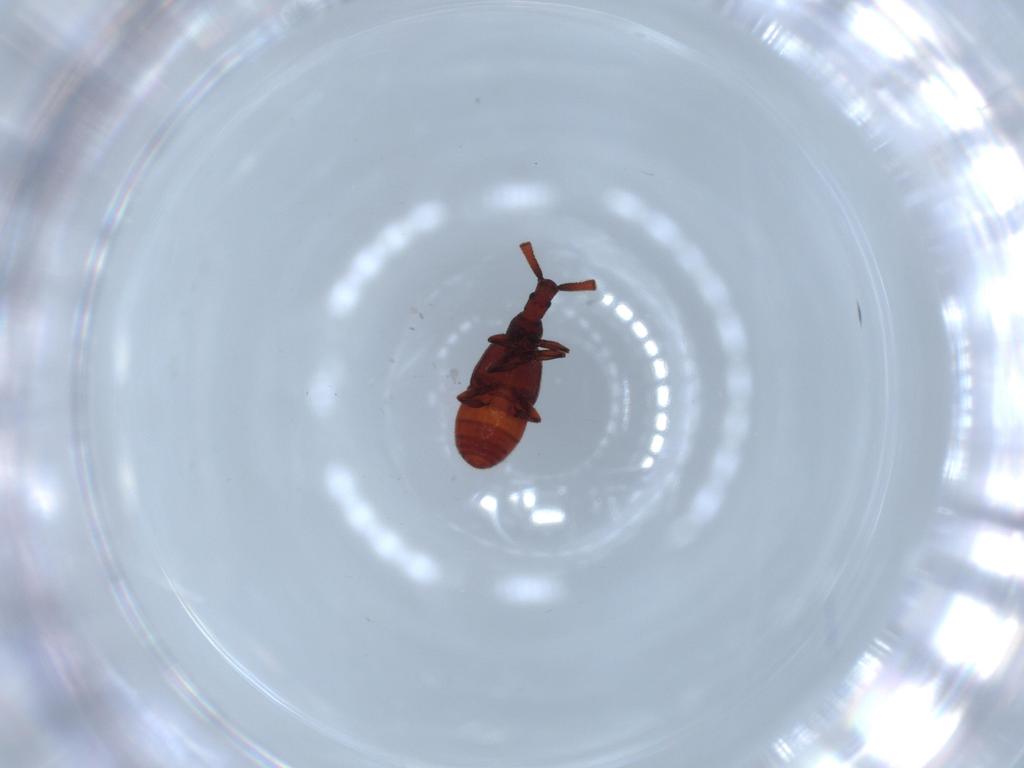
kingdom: Animalia
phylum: Arthropoda
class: Insecta
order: Coleoptera
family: Staphylinidae
